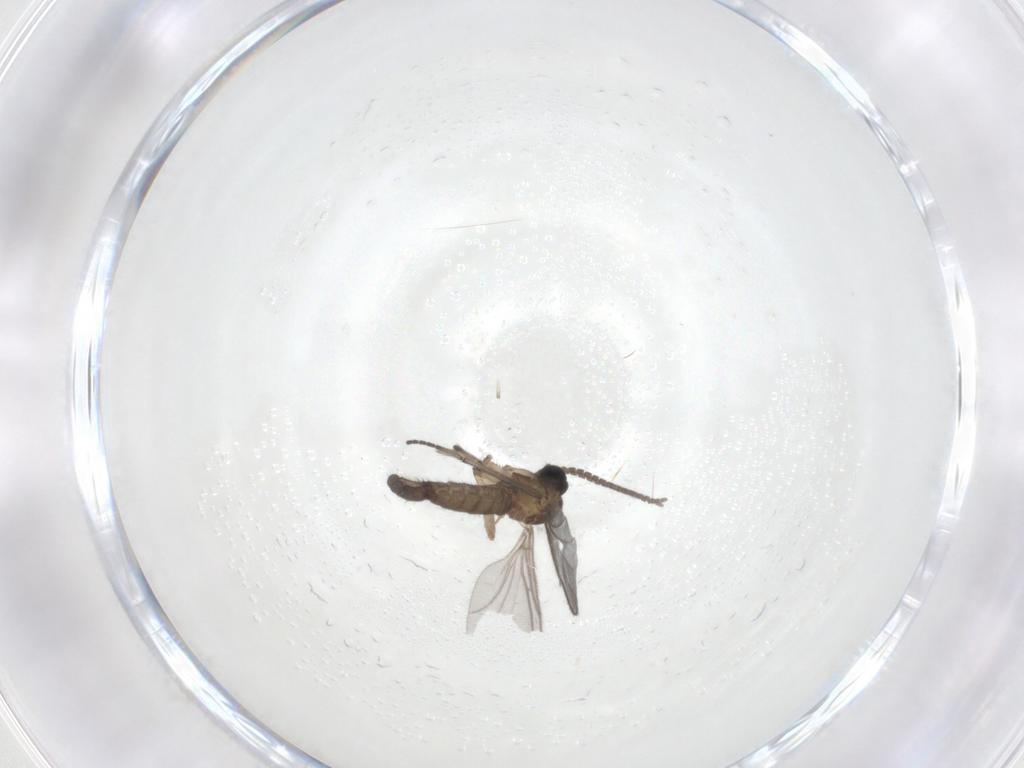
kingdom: Animalia
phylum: Arthropoda
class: Insecta
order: Diptera
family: Sciaridae
